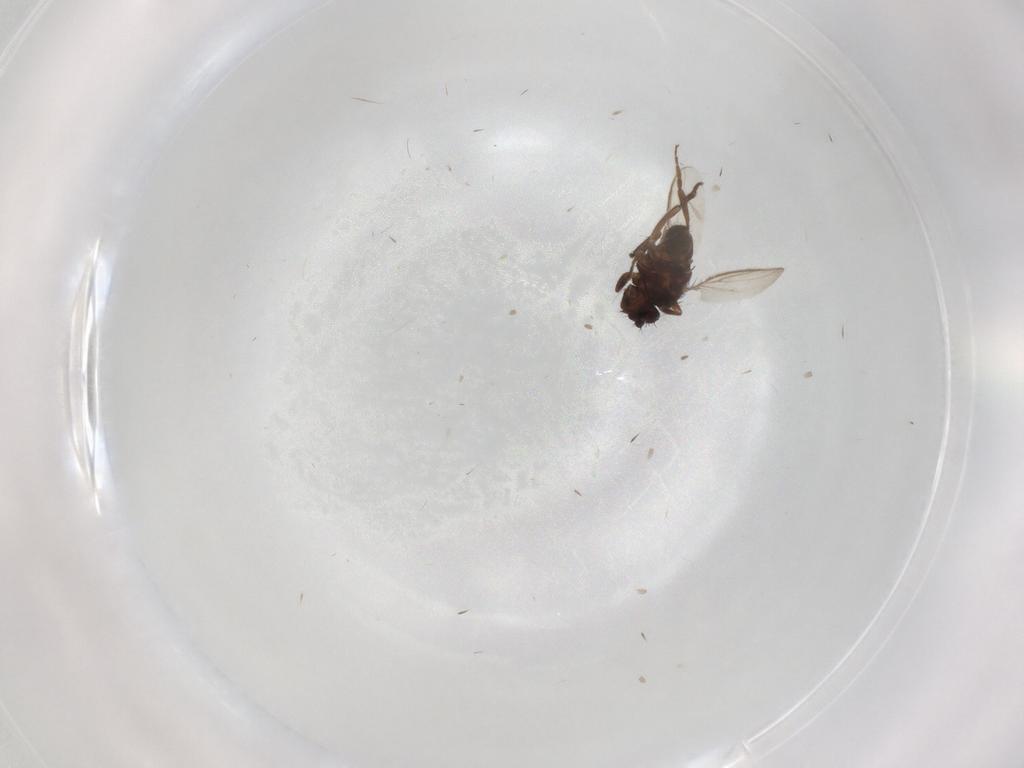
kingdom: Animalia
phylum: Arthropoda
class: Insecta
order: Diptera
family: Sphaeroceridae
